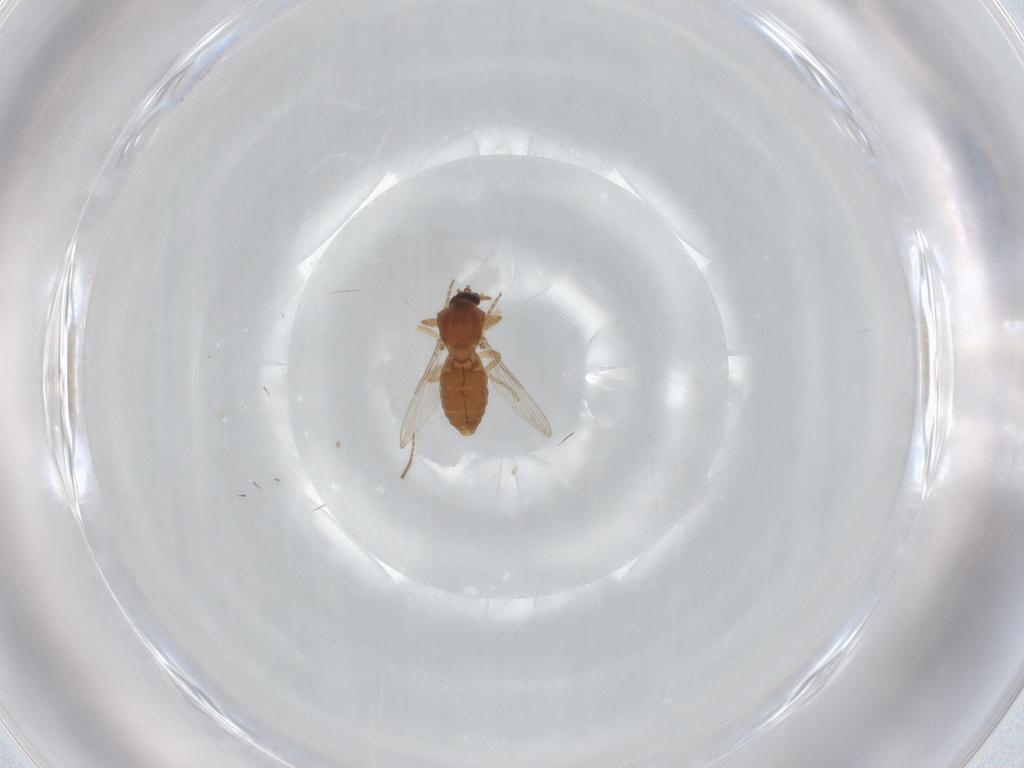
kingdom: Animalia
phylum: Arthropoda
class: Insecta
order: Diptera
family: Ceratopogonidae
